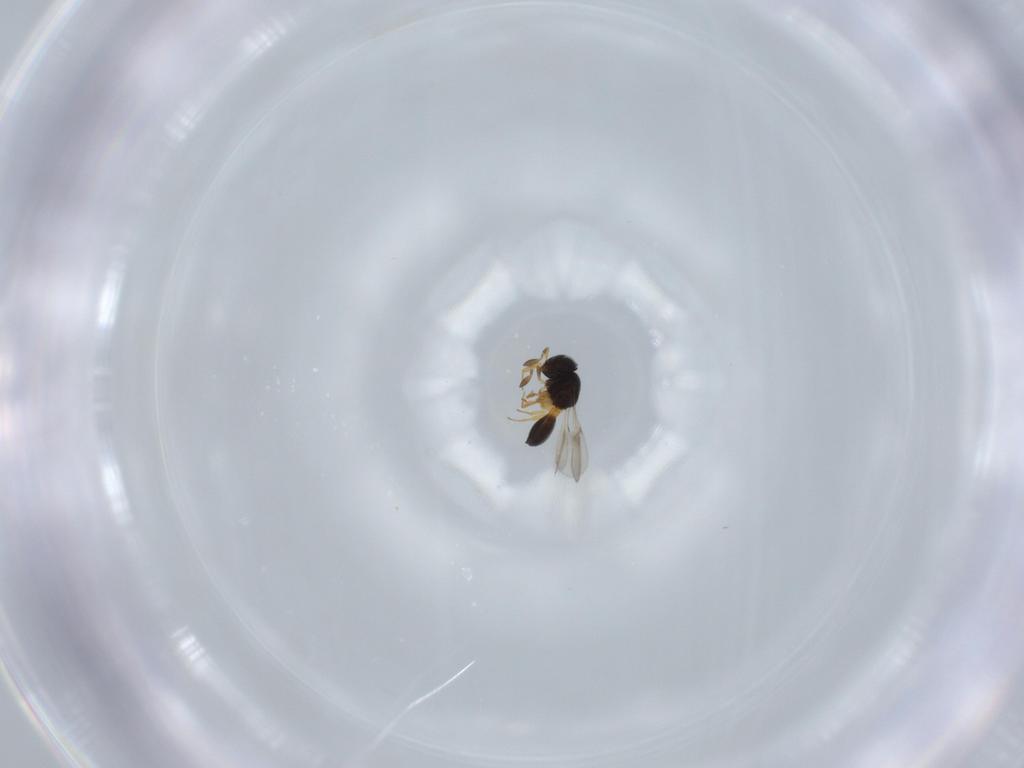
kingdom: Animalia
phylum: Arthropoda
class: Insecta
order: Hymenoptera
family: Scelionidae
